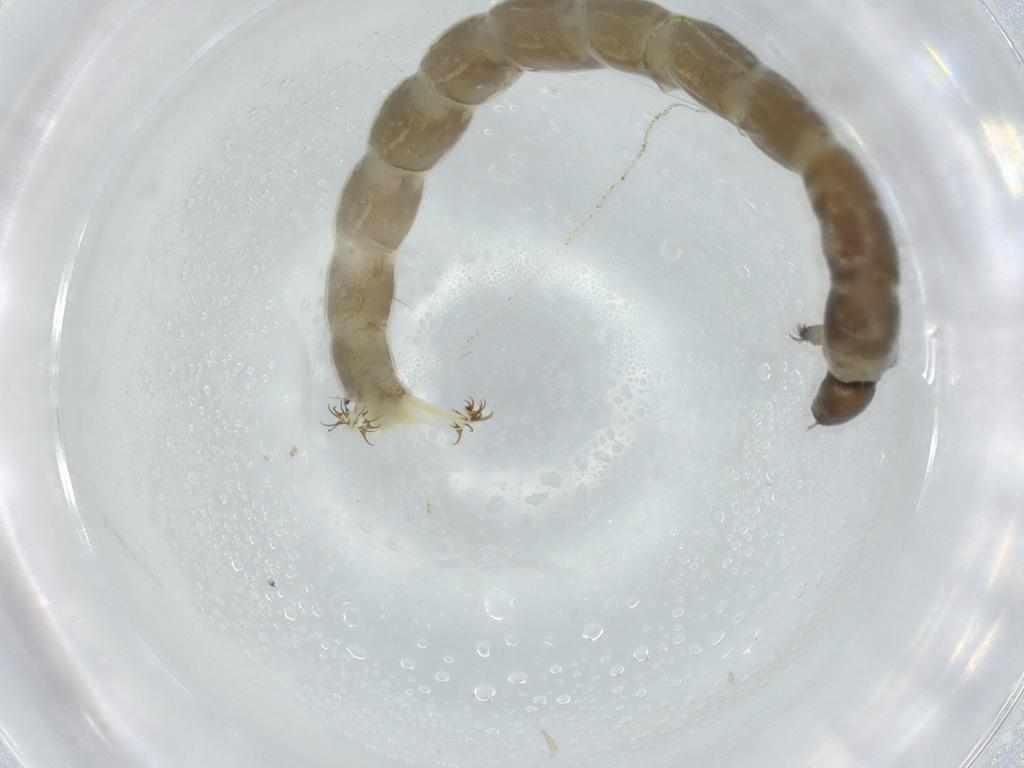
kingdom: Animalia
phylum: Arthropoda
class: Insecta
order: Diptera
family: Chironomidae
